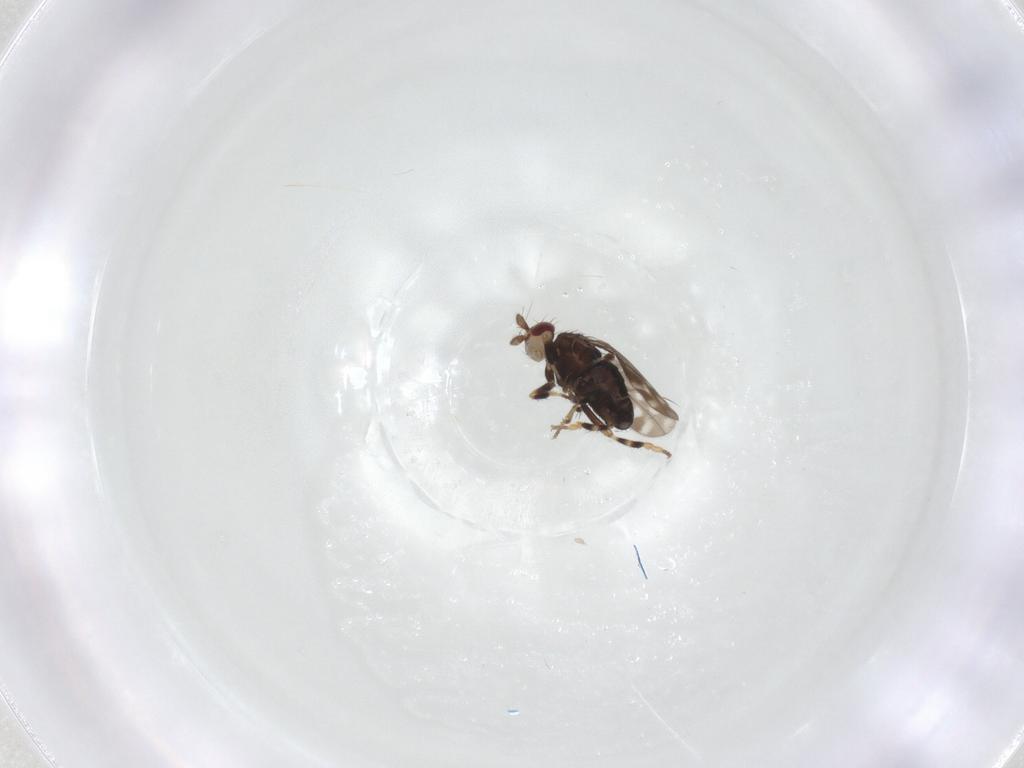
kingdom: Animalia
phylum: Arthropoda
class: Insecta
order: Diptera
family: Sphaeroceridae
